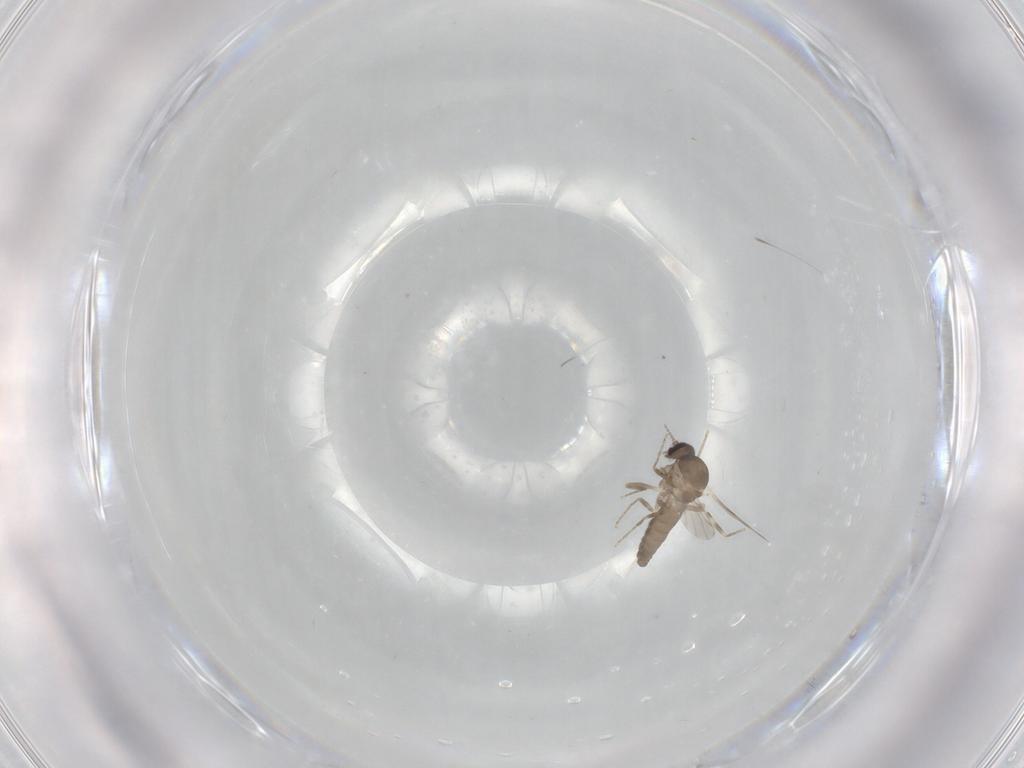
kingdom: Animalia
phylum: Arthropoda
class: Insecta
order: Diptera
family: Ceratopogonidae
